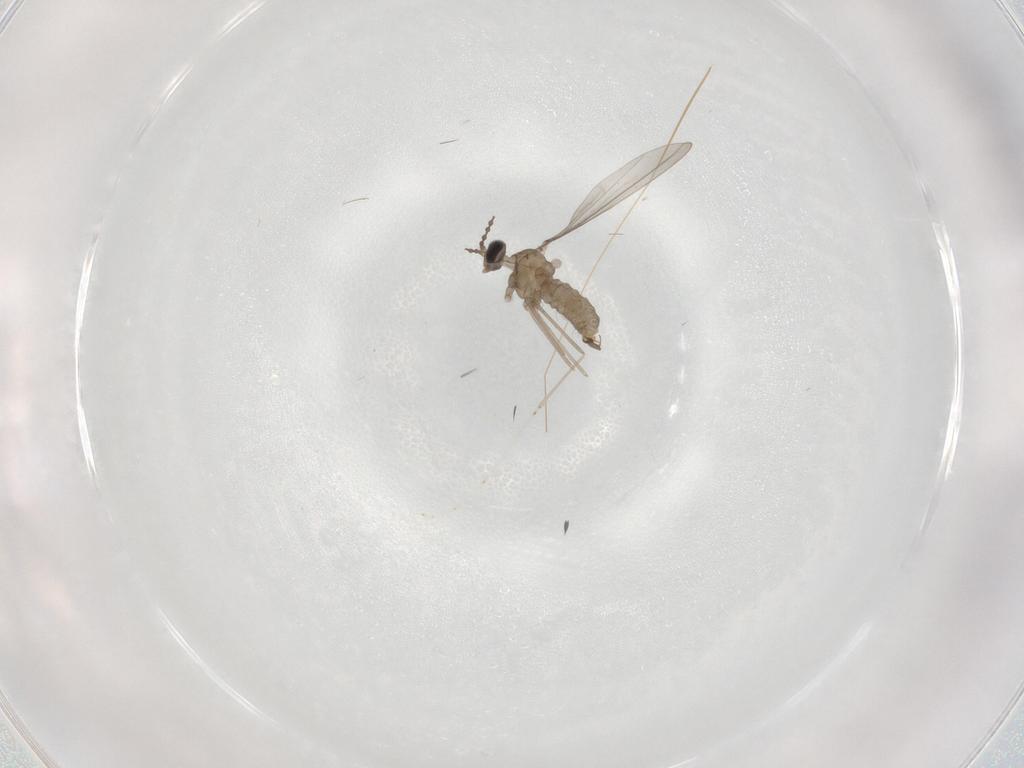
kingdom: Animalia
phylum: Arthropoda
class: Insecta
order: Diptera
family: Cecidomyiidae
